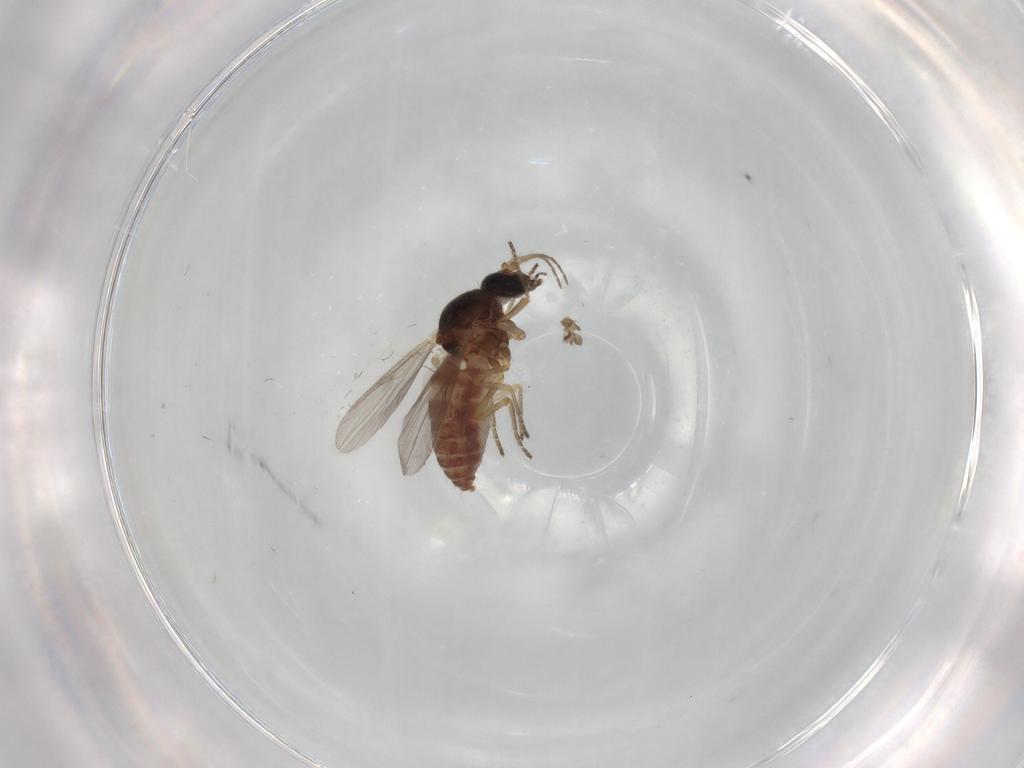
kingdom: Animalia
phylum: Arthropoda
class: Insecta
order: Diptera
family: Ceratopogonidae
